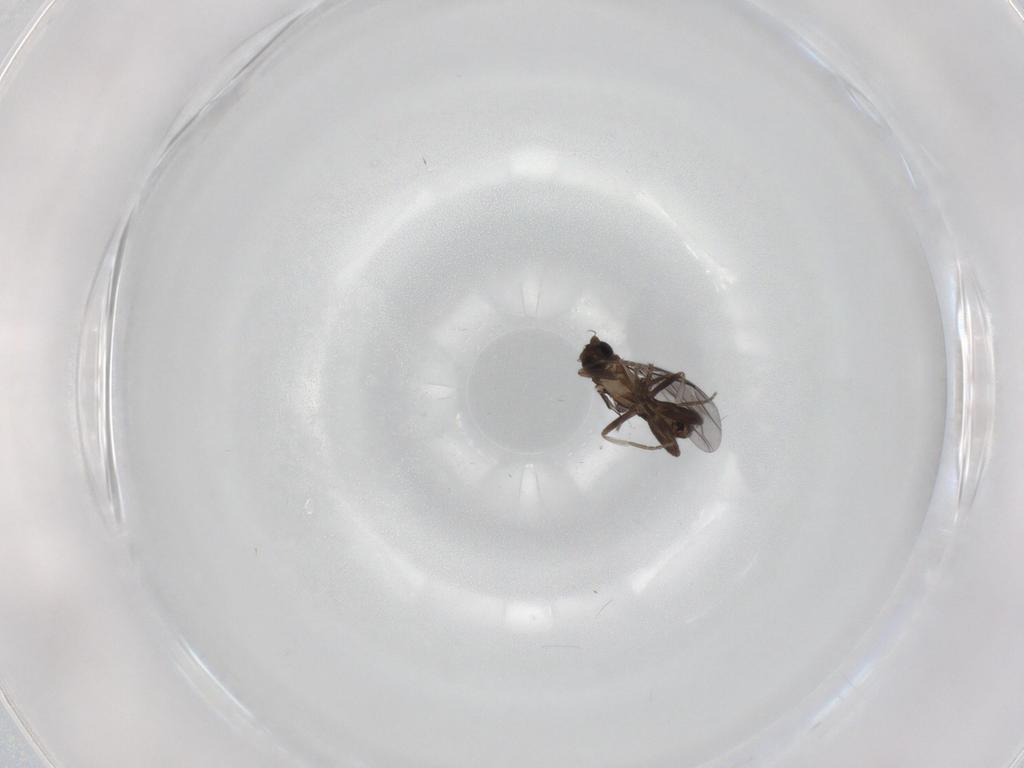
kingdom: Animalia
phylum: Arthropoda
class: Insecta
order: Diptera
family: Phoridae
